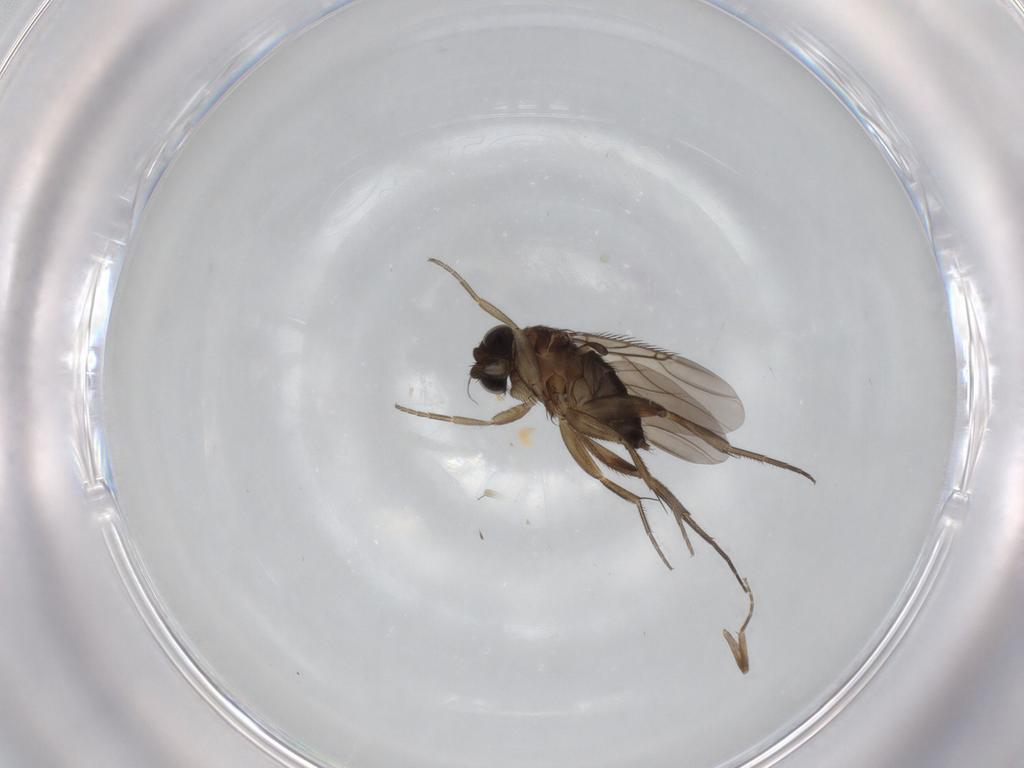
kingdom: Animalia
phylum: Arthropoda
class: Insecta
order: Diptera
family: Phoridae
